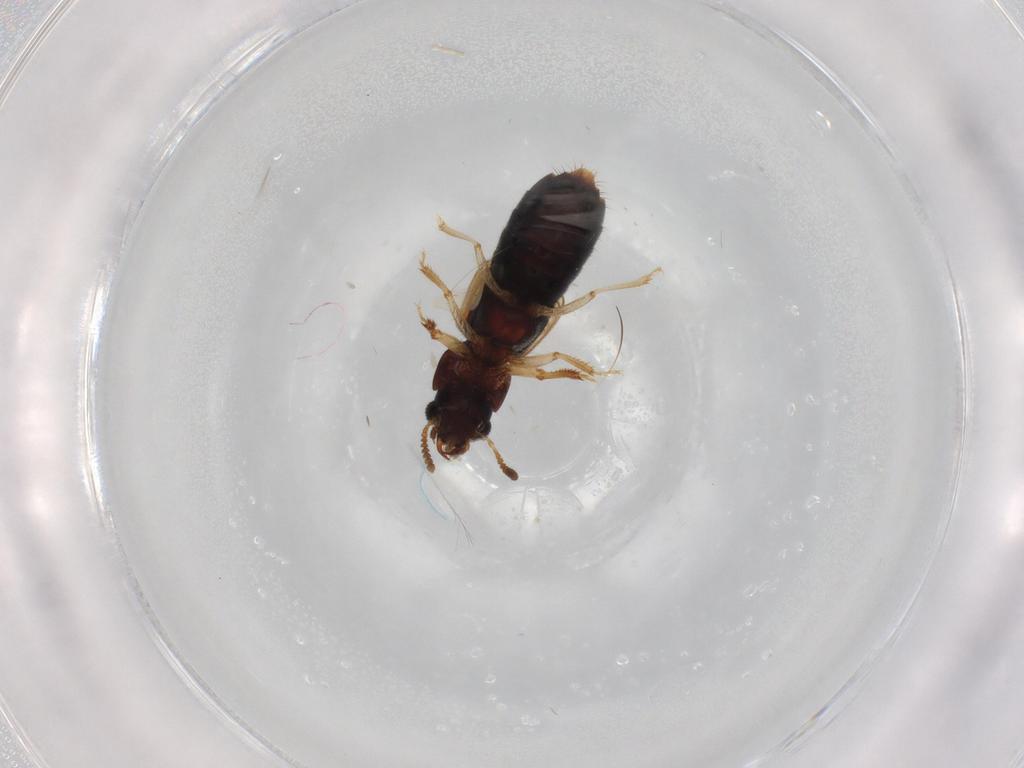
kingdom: Animalia
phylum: Arthropoda
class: Insecta
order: Coleoptera
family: Staphylinidae
